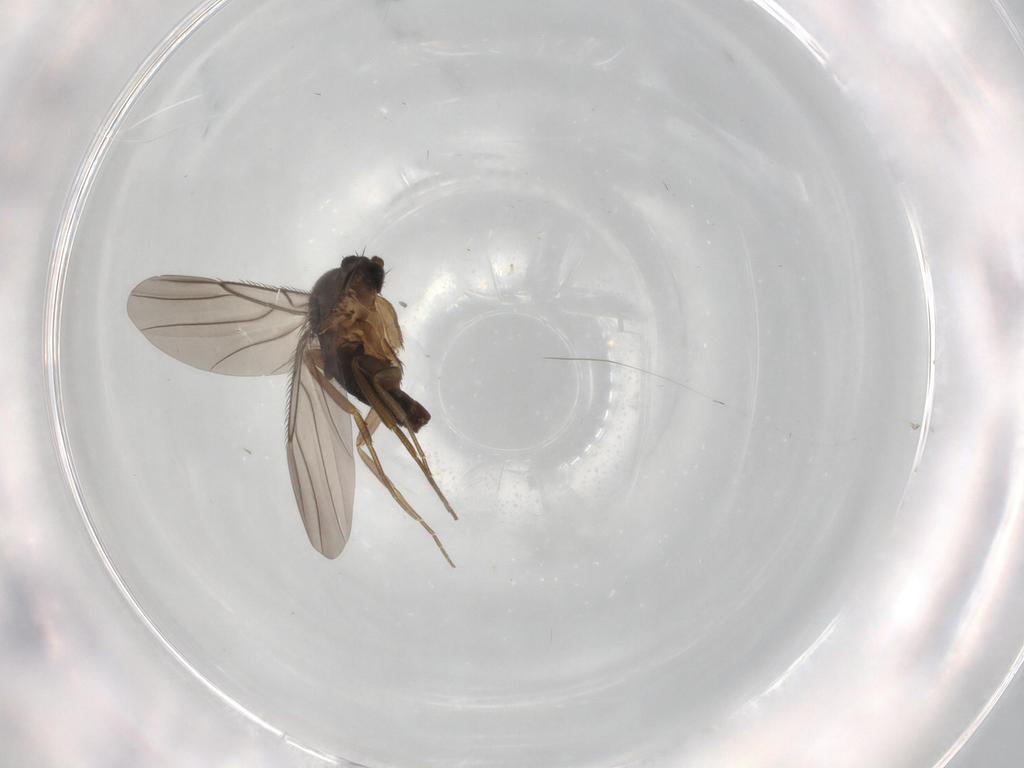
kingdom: Animalia
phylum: Arthropoda
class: Insecta
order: Diptera
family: Phoridae
